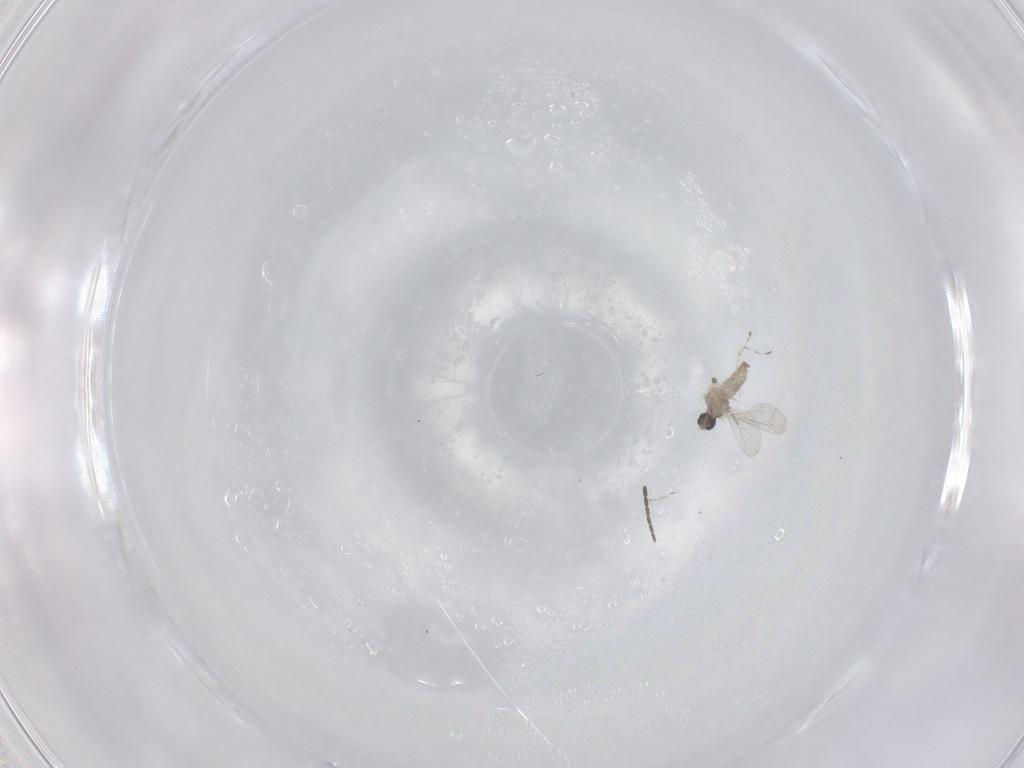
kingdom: Animalia
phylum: Arthropoda
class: Insecta
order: Diptera
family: Cecidomyiidae
